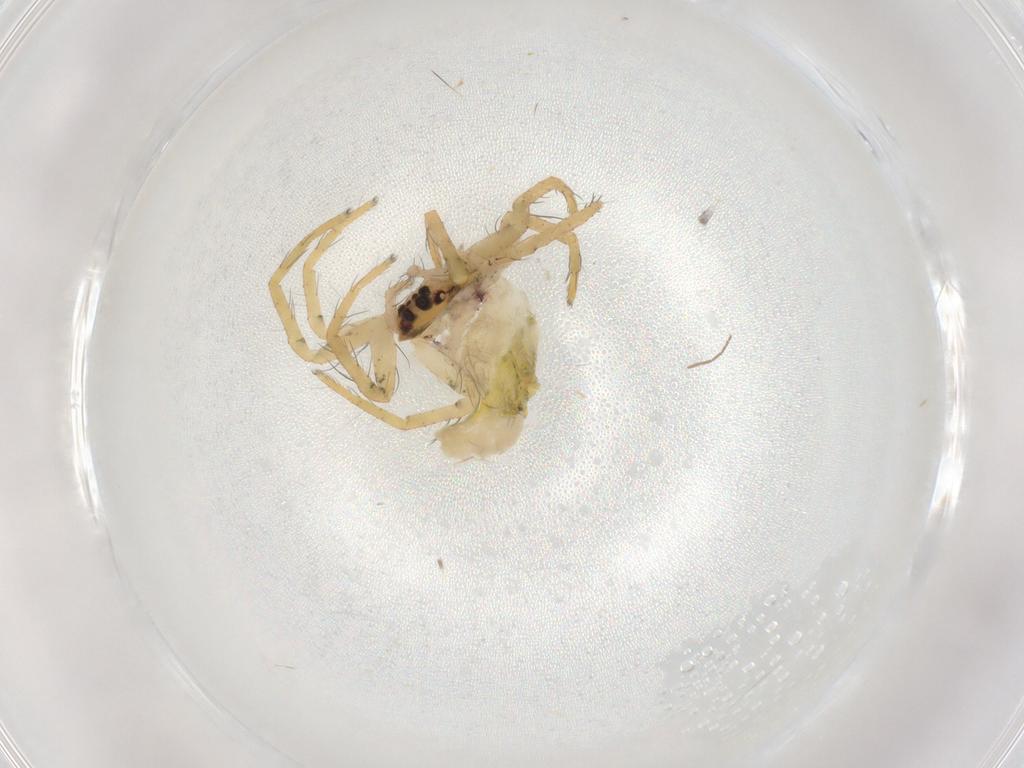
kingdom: Animalia
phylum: Arthropoda
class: Arachnida
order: Araneae
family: Pisauridae
